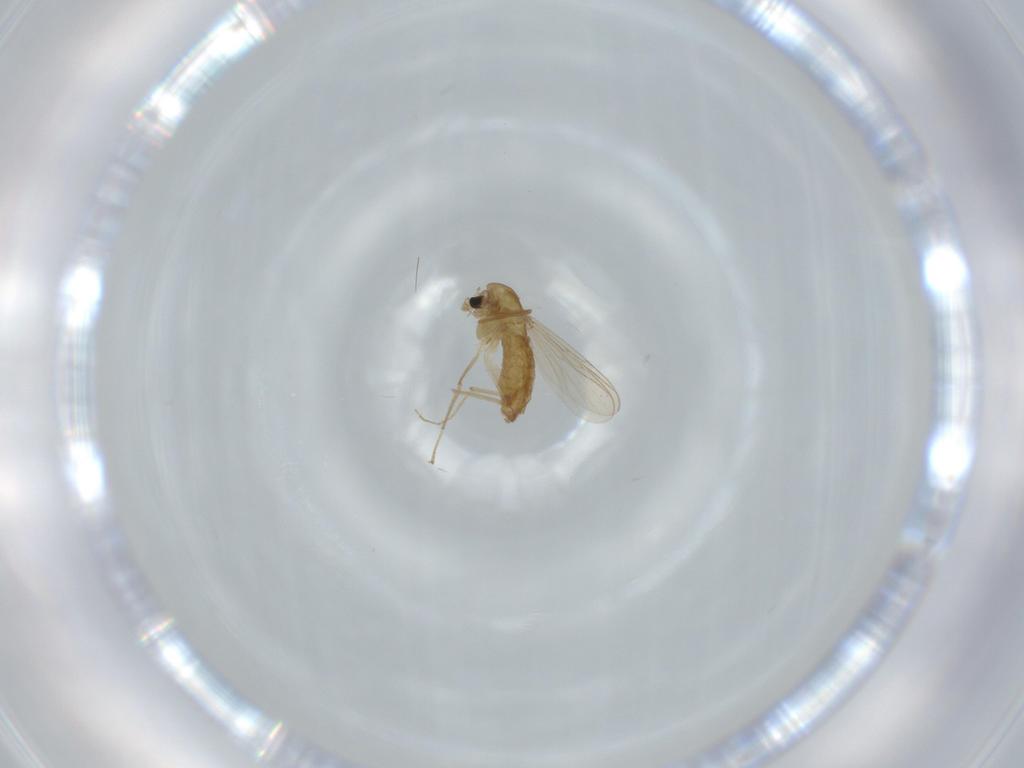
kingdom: Animalia
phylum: Arthropoda
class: Insecta
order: Diptera
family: Chironomidae
